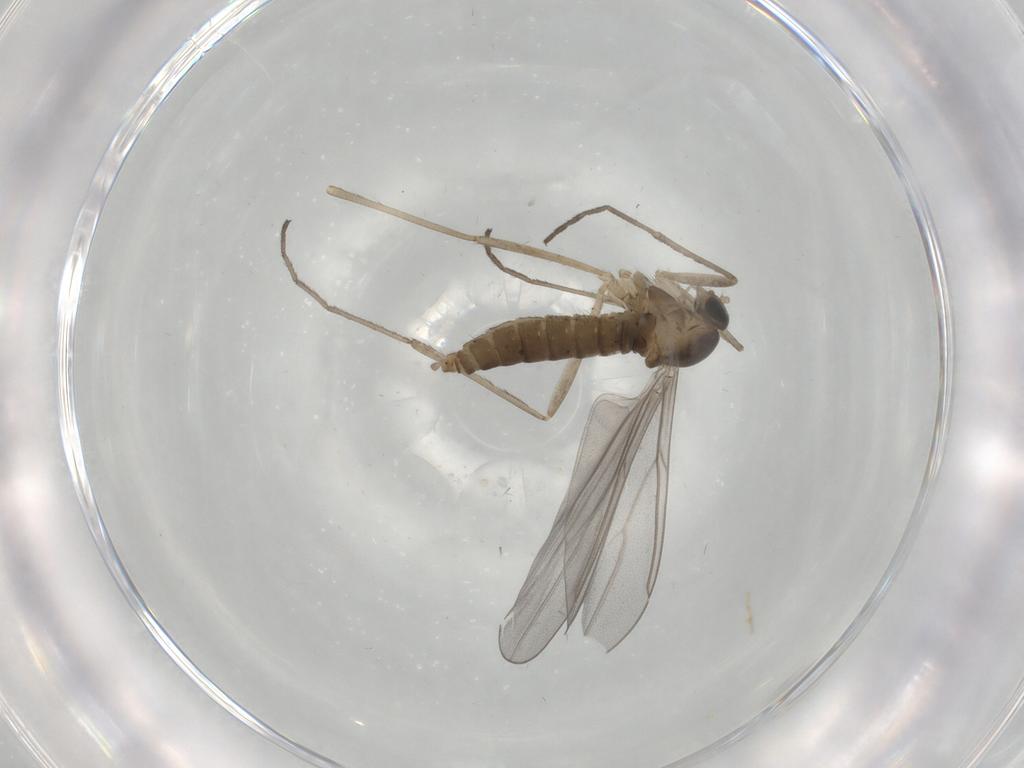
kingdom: Animalia
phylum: Arthropoda
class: Insecta
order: Diptera
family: Cecidomyiidae
